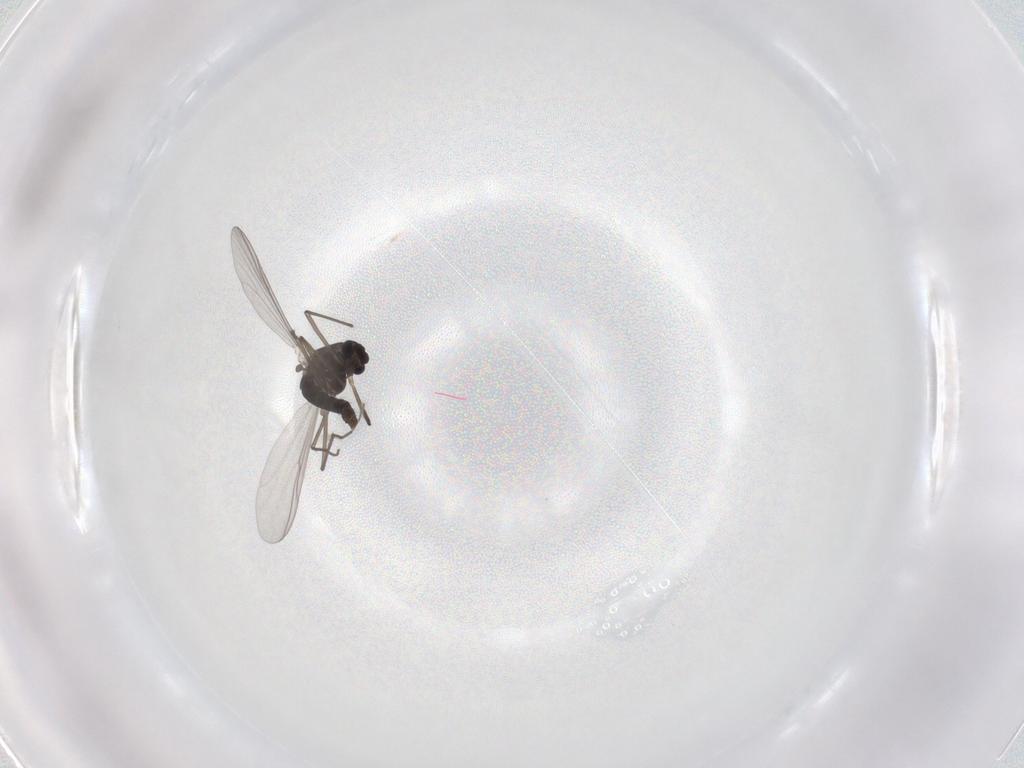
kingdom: Animalia
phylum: Arthropoda
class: Insecta
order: Diptera
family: Chironomidae
